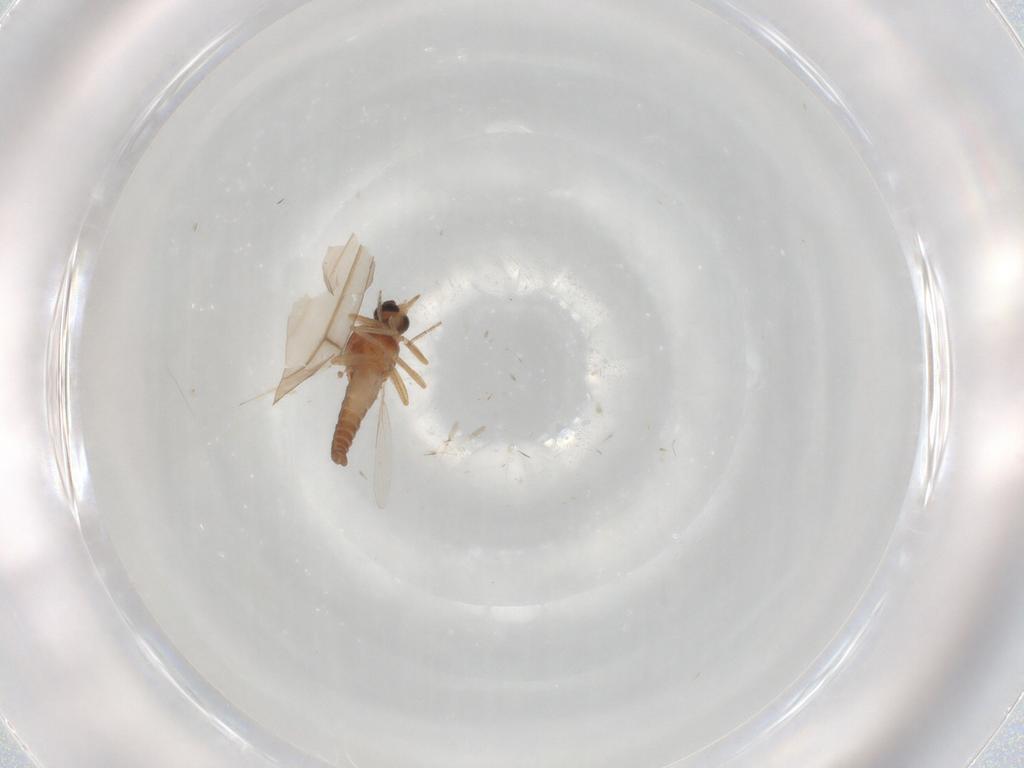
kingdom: Animalia
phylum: Arthropoda
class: Insecta
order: Diptera
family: Ceratopogonidae
